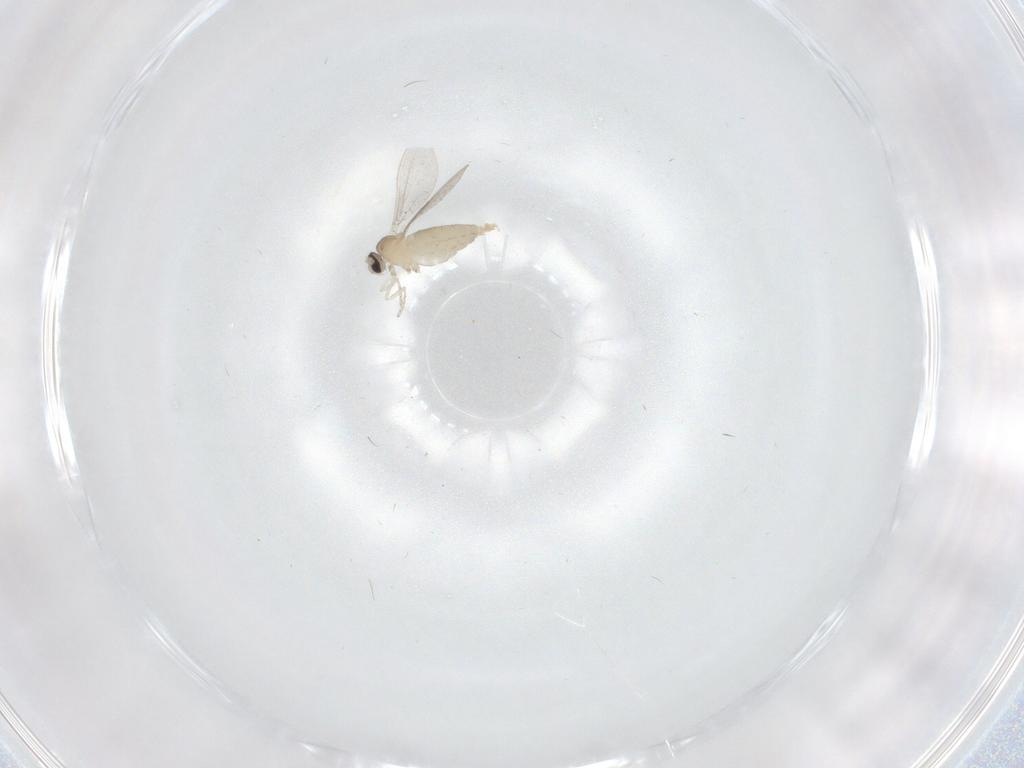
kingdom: Animalia
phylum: Arthropoda
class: Insecta
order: Diptera
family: Cecidomyiidae
